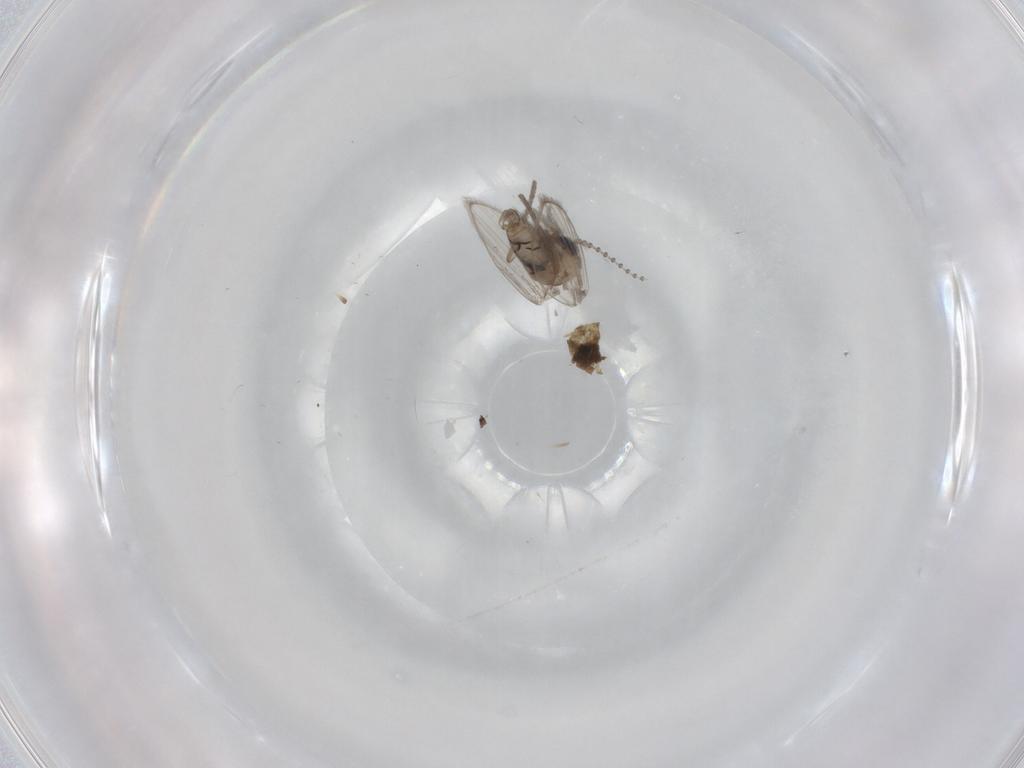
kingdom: Animalia
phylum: Arthropoda
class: Insecta
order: Diptera
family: Psychodidae
